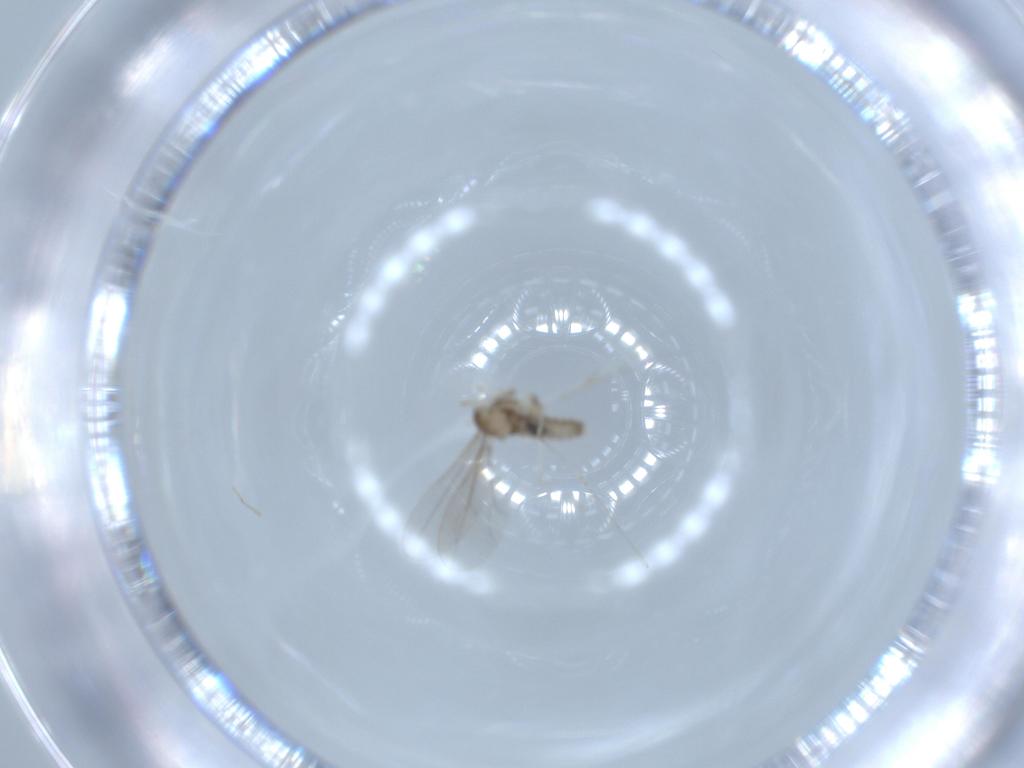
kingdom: Animalia
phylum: Arthropoda
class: Insecta
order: Diptera
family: Cecidomyiidae
